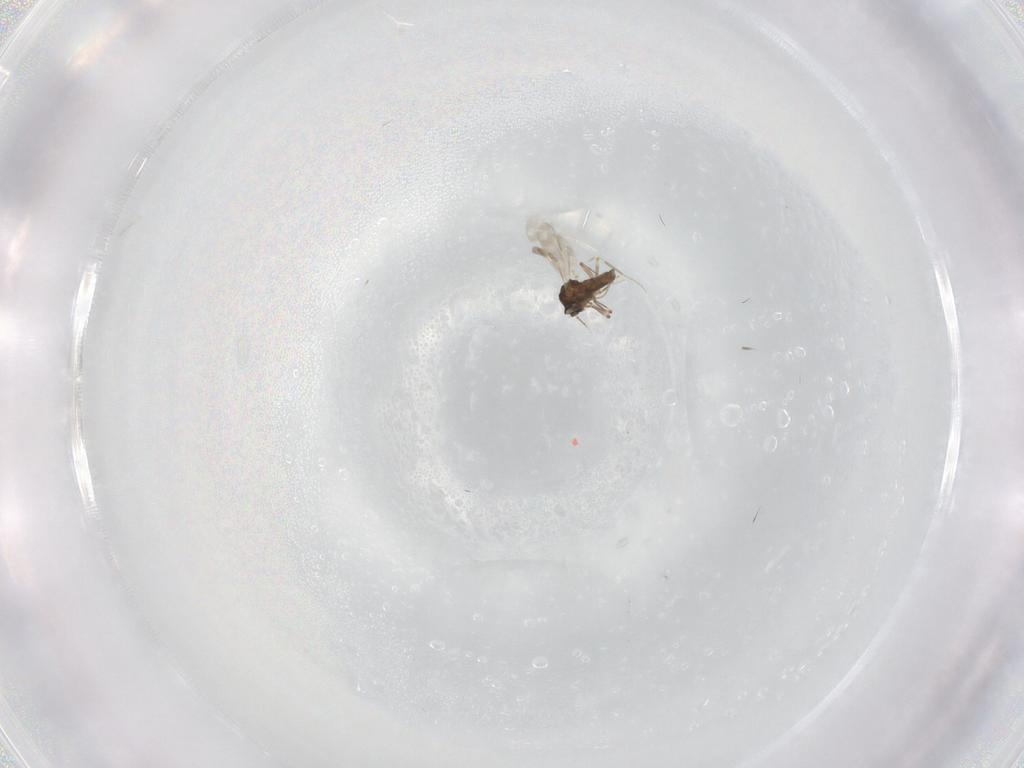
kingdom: Animalia
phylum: Arthropoda
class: Insecta
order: Diptera
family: Ceratopogonidae
